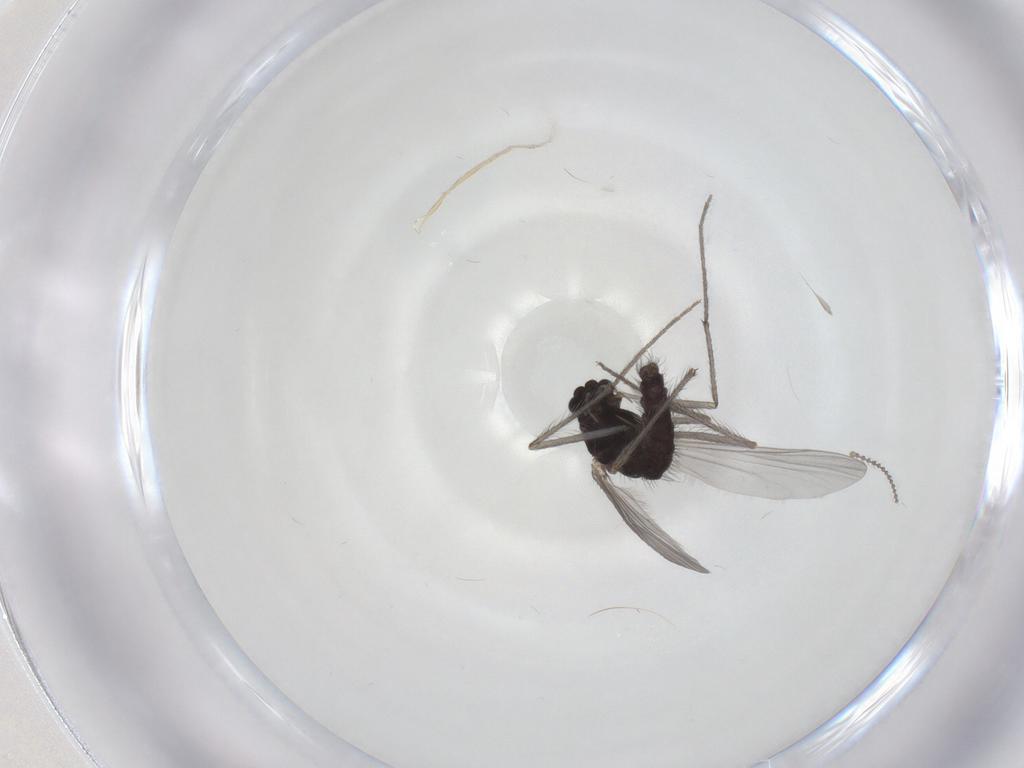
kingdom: Animalia
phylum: Arthropoda
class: Insecta
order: Diptera
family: Chironomidae
